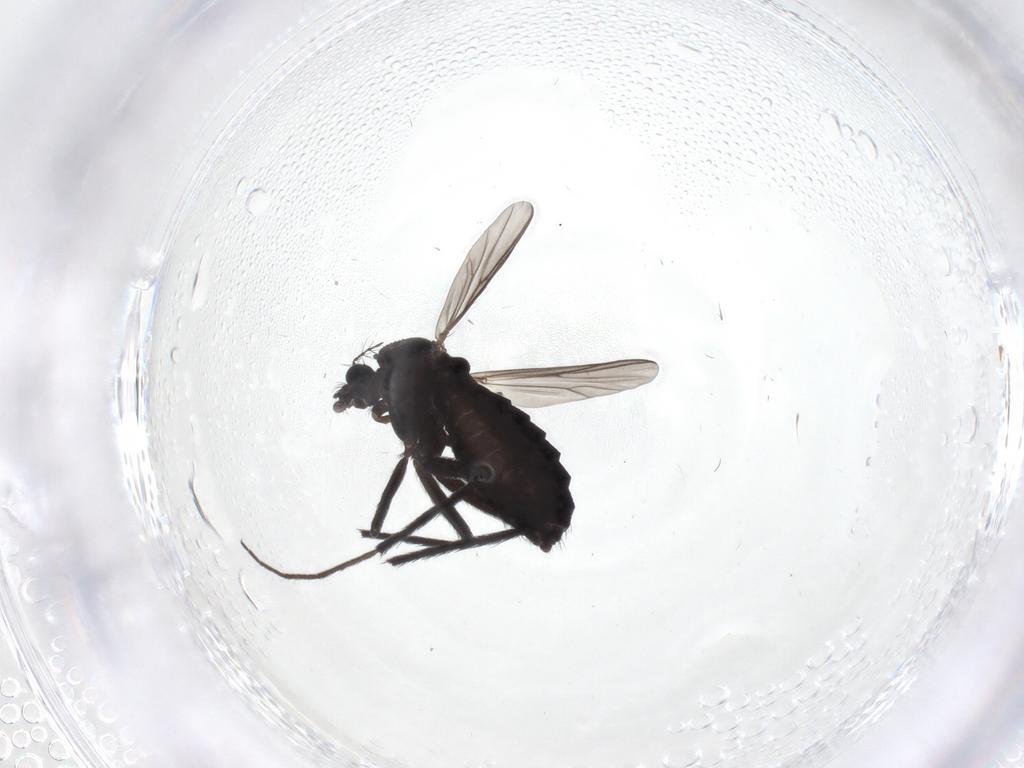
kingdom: Animalia
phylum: Arthropoda
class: Insecta
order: Diptera
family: Chironomidae
